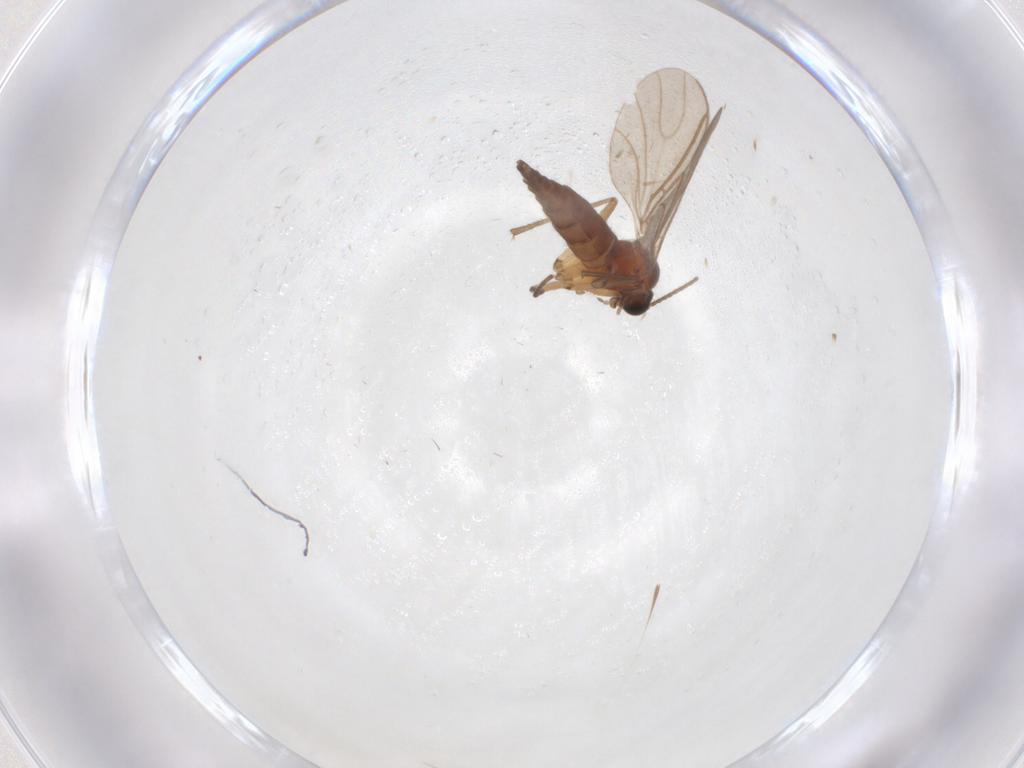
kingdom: Animalia
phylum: Arthropoda
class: Insecta
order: Diptera
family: Sciaridae
